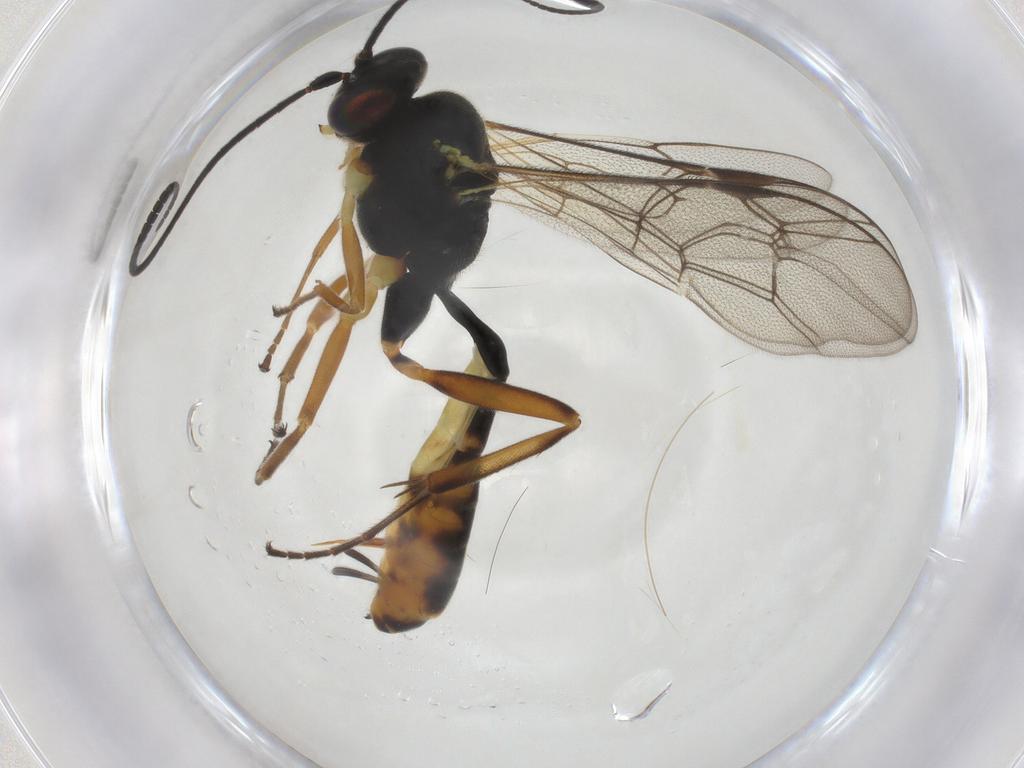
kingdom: Animalia
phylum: Arthropoda
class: Insecta
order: Hymenoptera
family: Ichneumonidae
